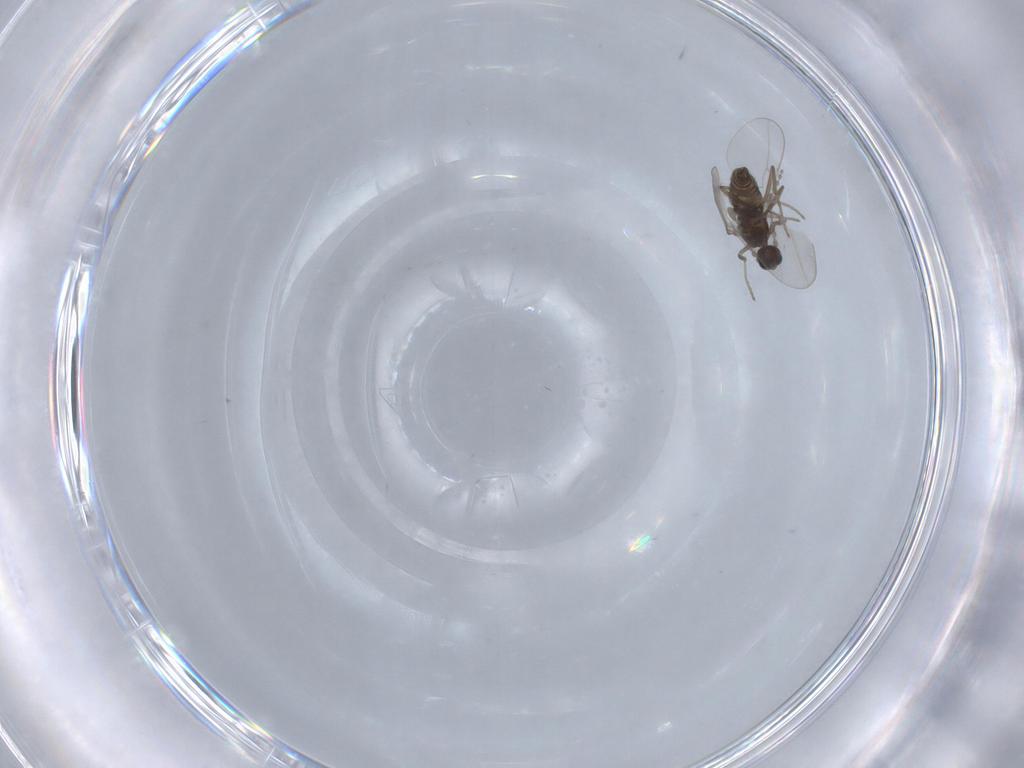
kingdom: Animalia
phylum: Arthropoda
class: Insecta
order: Diptera
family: Cecidomyiidae
